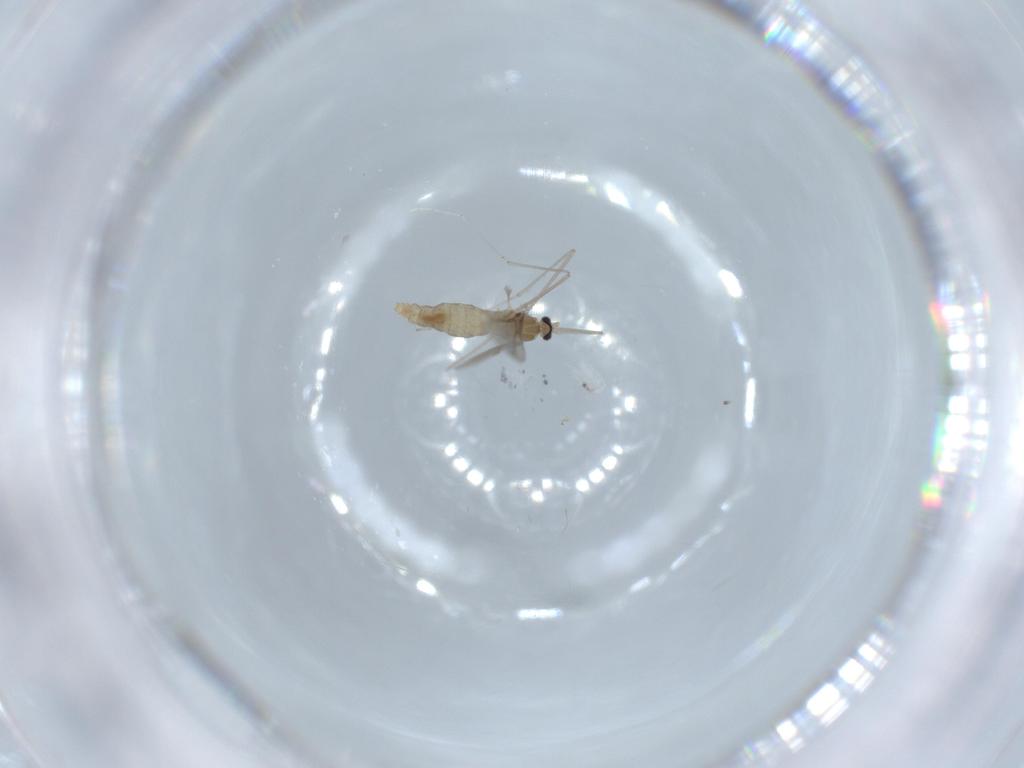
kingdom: Animalia
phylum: Arthropoda
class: Insecta
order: Diptera
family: Cecidomyiidae
